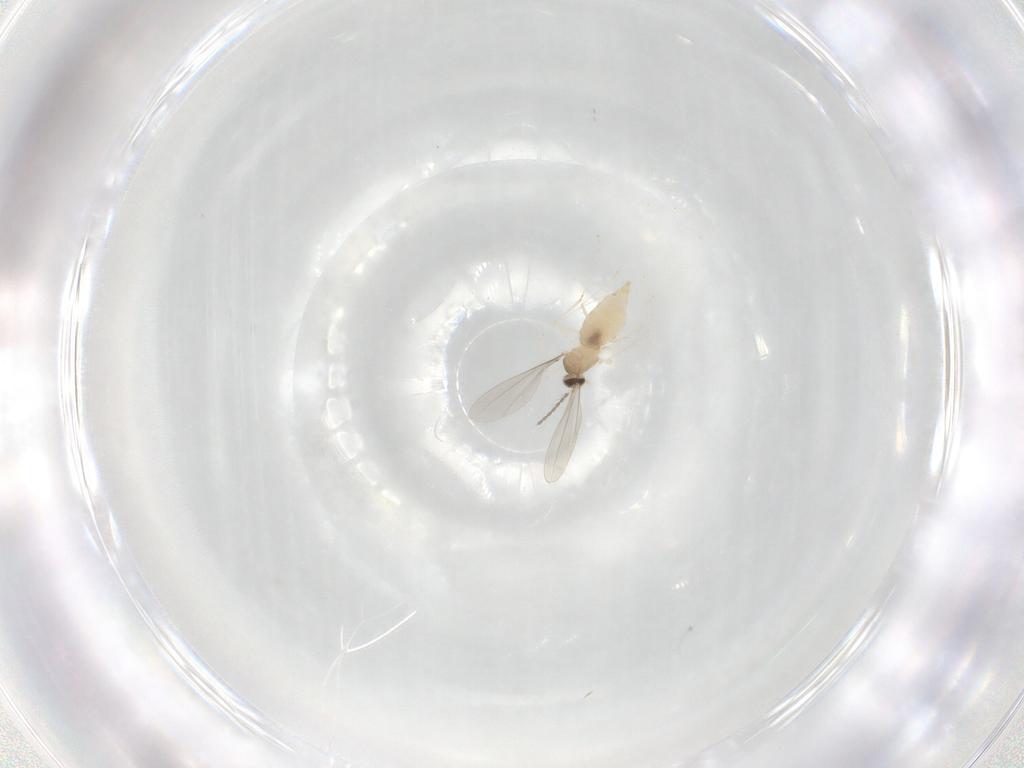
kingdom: Animalia
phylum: Arthropoda
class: Insecta
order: Diptera
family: Cecidomyiidae
